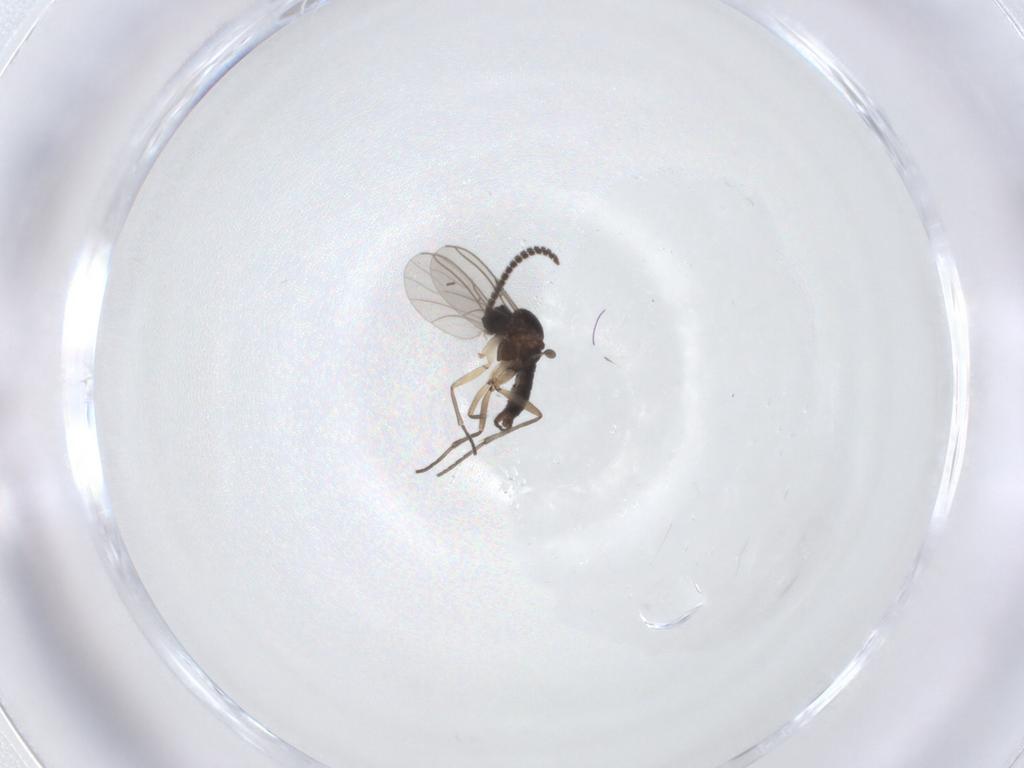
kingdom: Animalia
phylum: Arthropoda
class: Insecta
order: Diptera
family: Sciaridae
